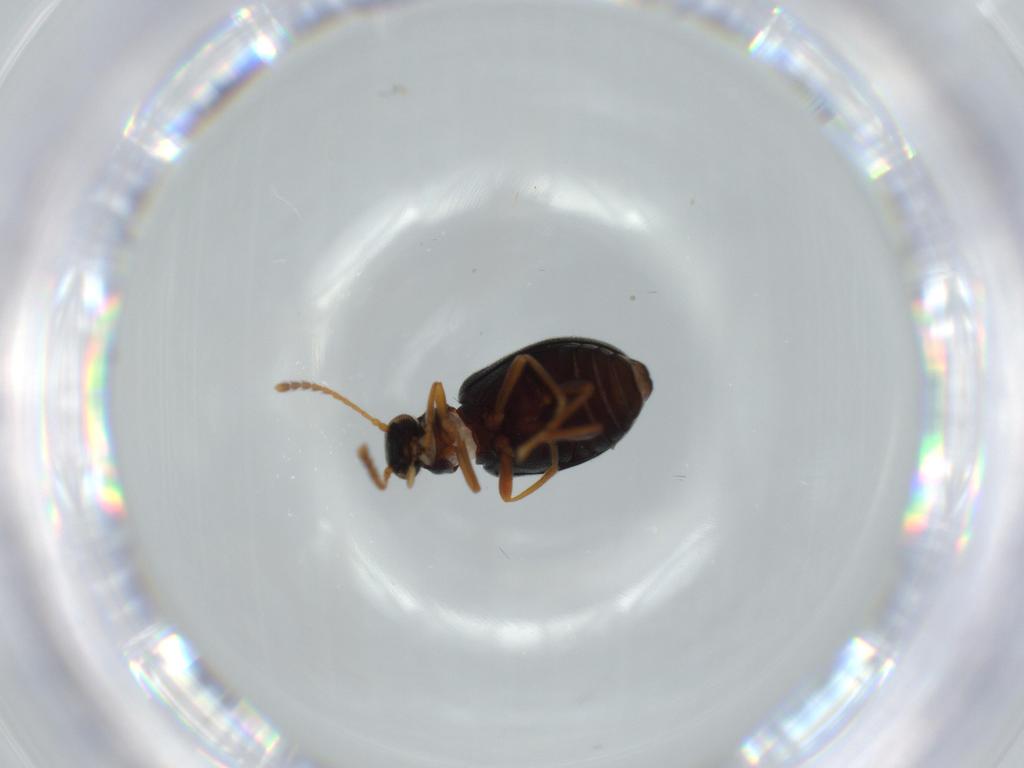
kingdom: Animalia
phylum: Arthropoda
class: Insecta
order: Coleoptera
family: Aderidae
